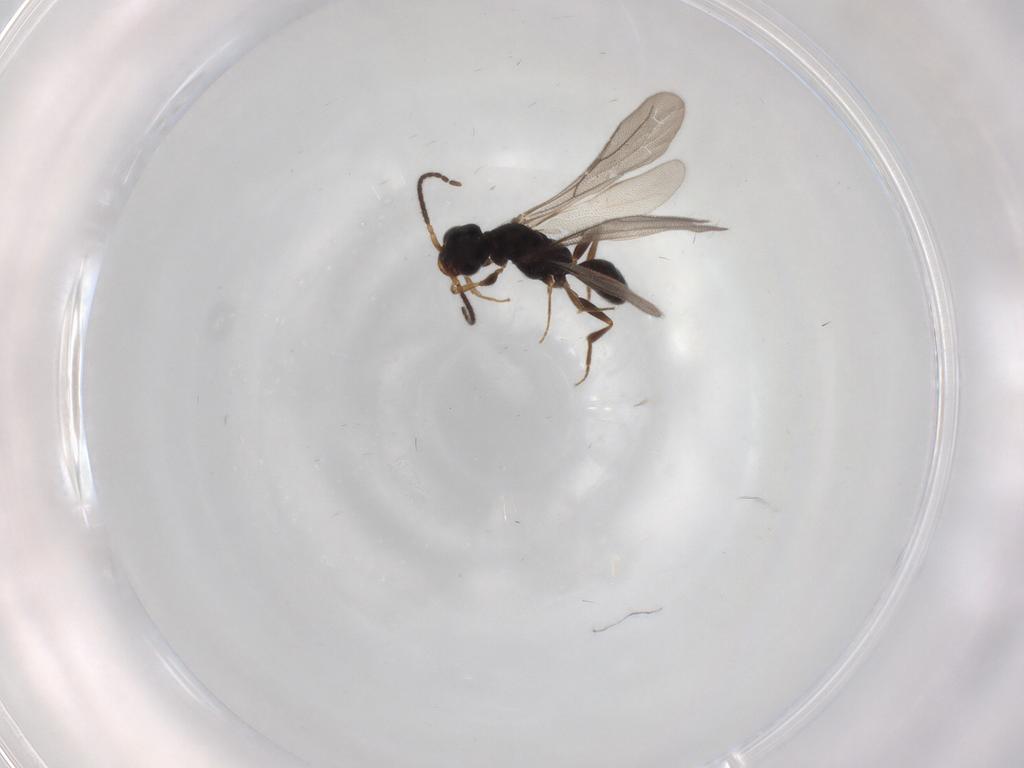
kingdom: Animalia
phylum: Arthropoda
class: Insecta
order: Hymenoptera
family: Bethylidae
